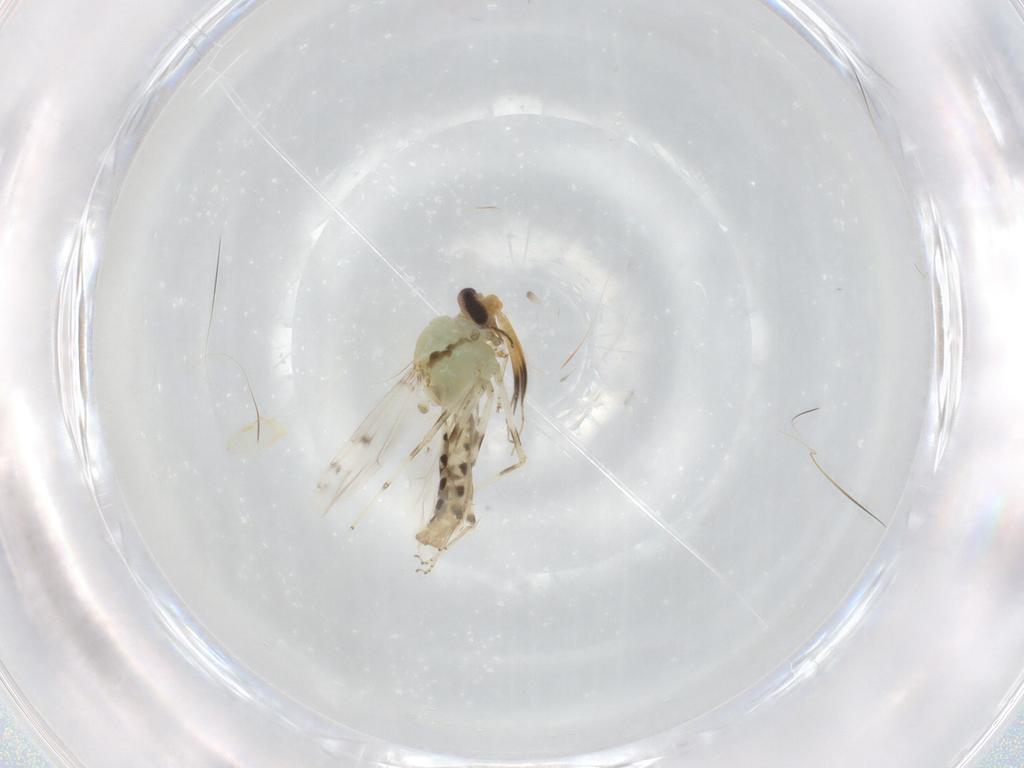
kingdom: Animalia
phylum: Arthropoda
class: Insecta
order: Diptera
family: Ceratopogonidae
